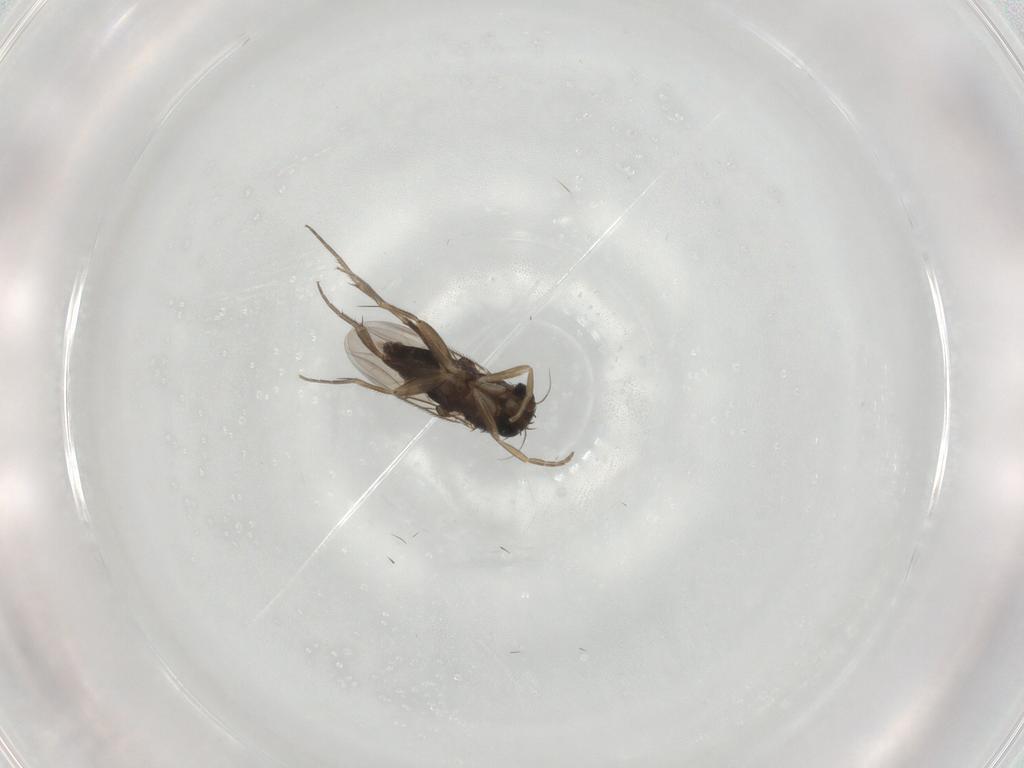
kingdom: Animalia
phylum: Arthropoda
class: Insecta
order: Diptera
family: Phoridae
